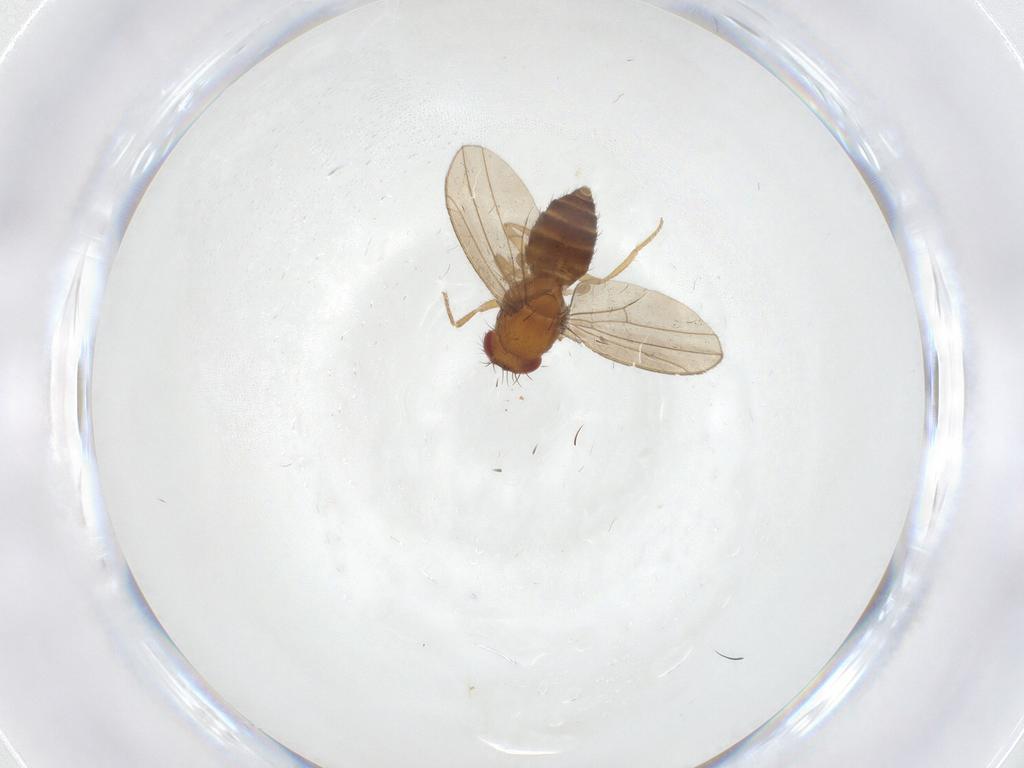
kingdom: Animalia
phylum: Arthropoda
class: Insecta
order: Diptera
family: Drosophilidae
